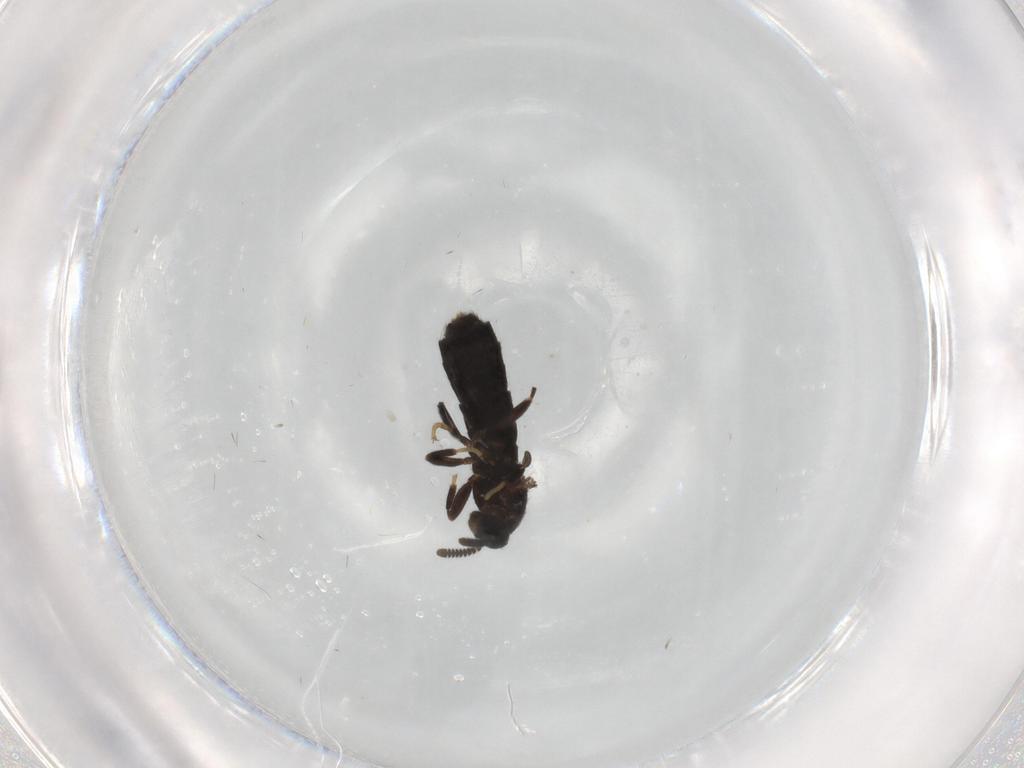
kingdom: Animalia
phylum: Arthropoda
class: Insecta
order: Diptera
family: Scatopsidae
